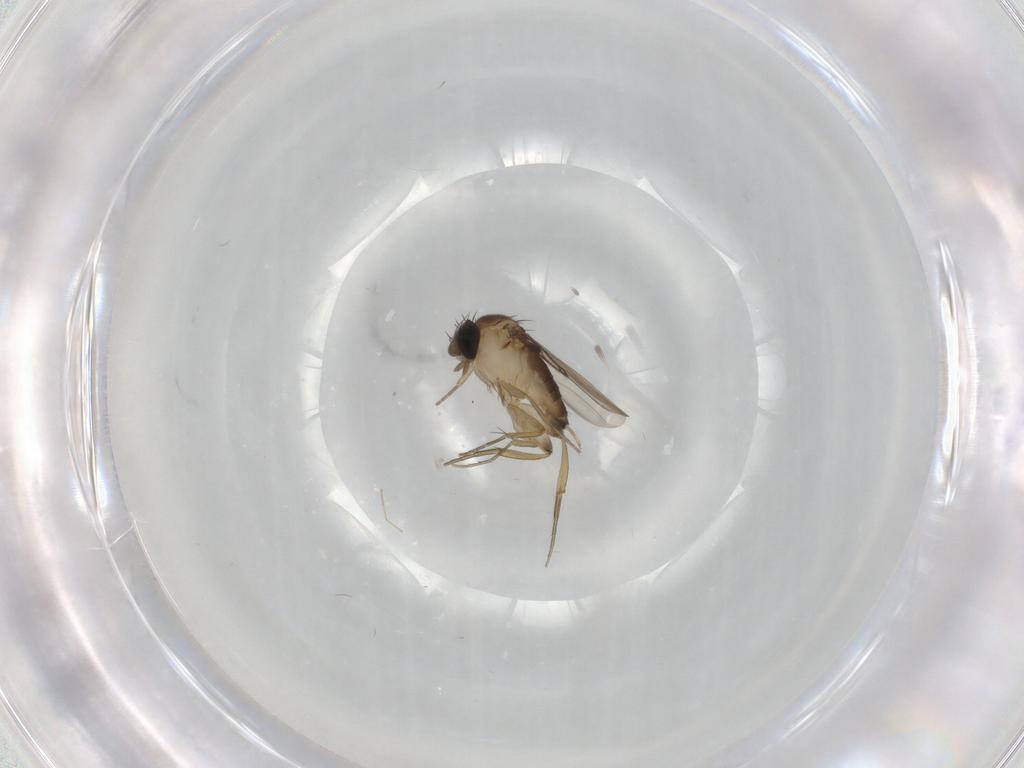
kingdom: Animalia
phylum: Arthropoda
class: Insecta
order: Diptera
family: Phoridae
